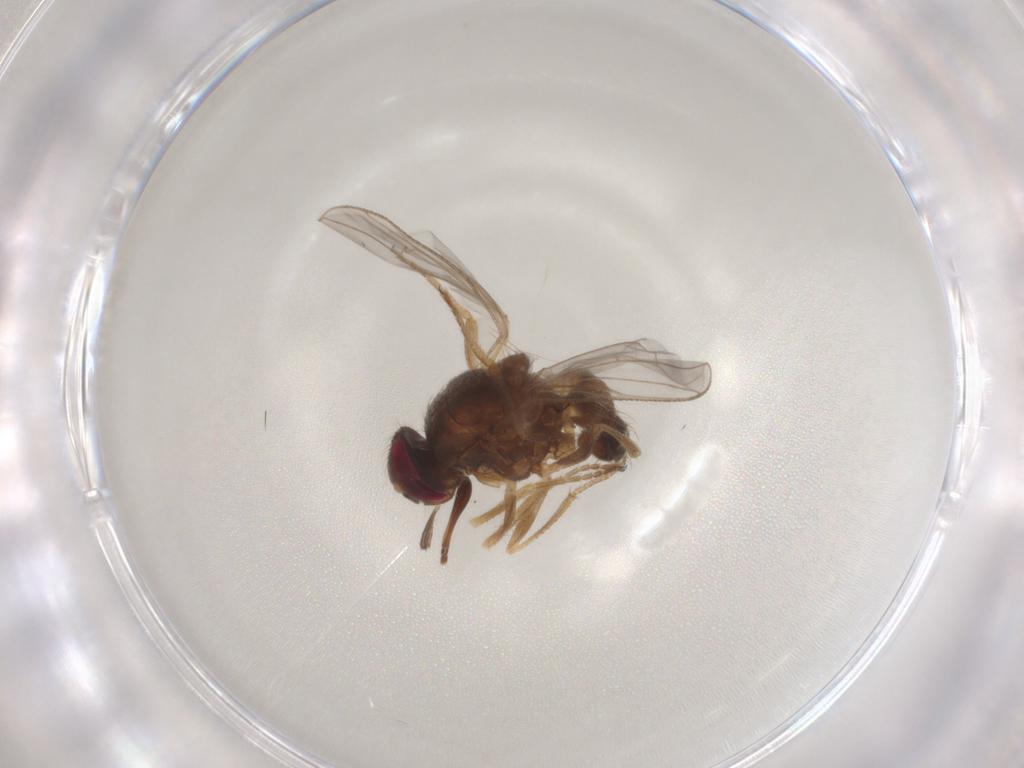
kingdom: Animalia
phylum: Arthropoda
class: Insecta
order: Diptera
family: Muscidae
